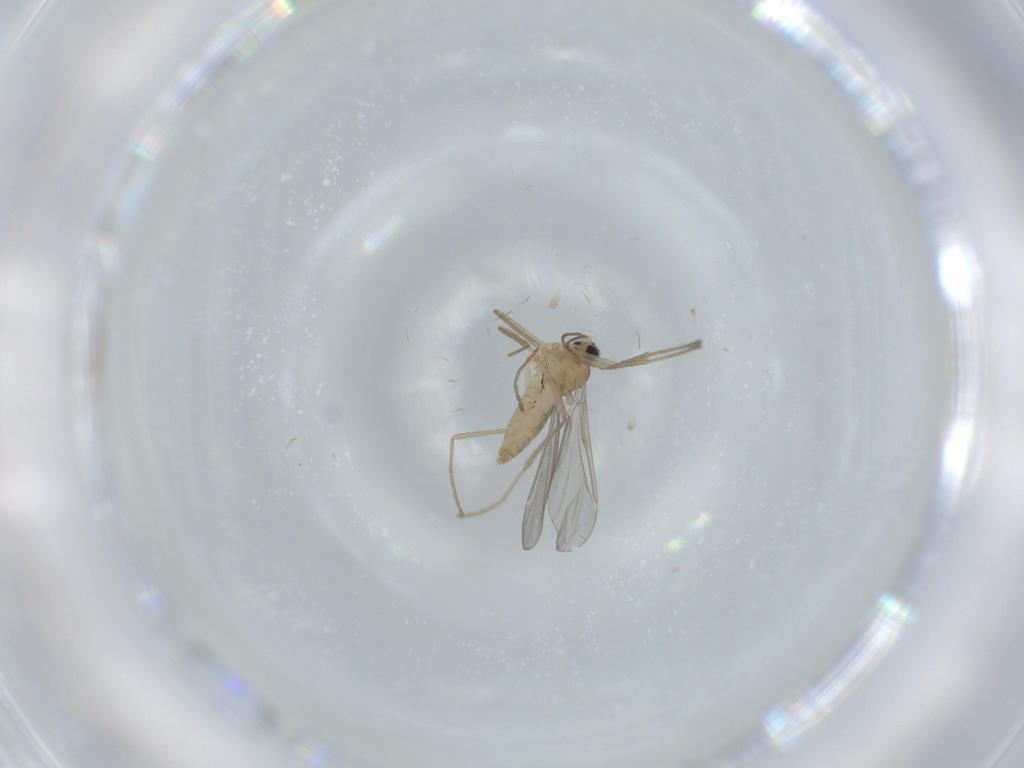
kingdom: Animalia
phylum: Arthropoda
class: Insecta
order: Diptera
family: Cecidomyiidae
